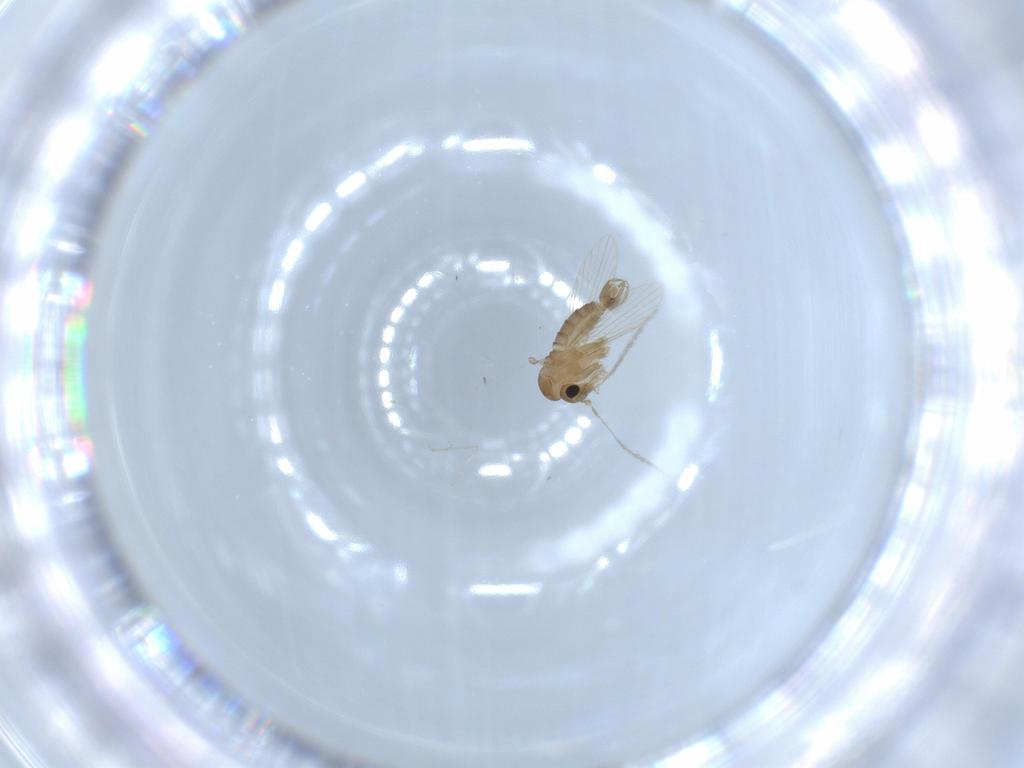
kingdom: Animalia
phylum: Arthropoda
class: Insecta
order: Diptera
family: Psychodidae
